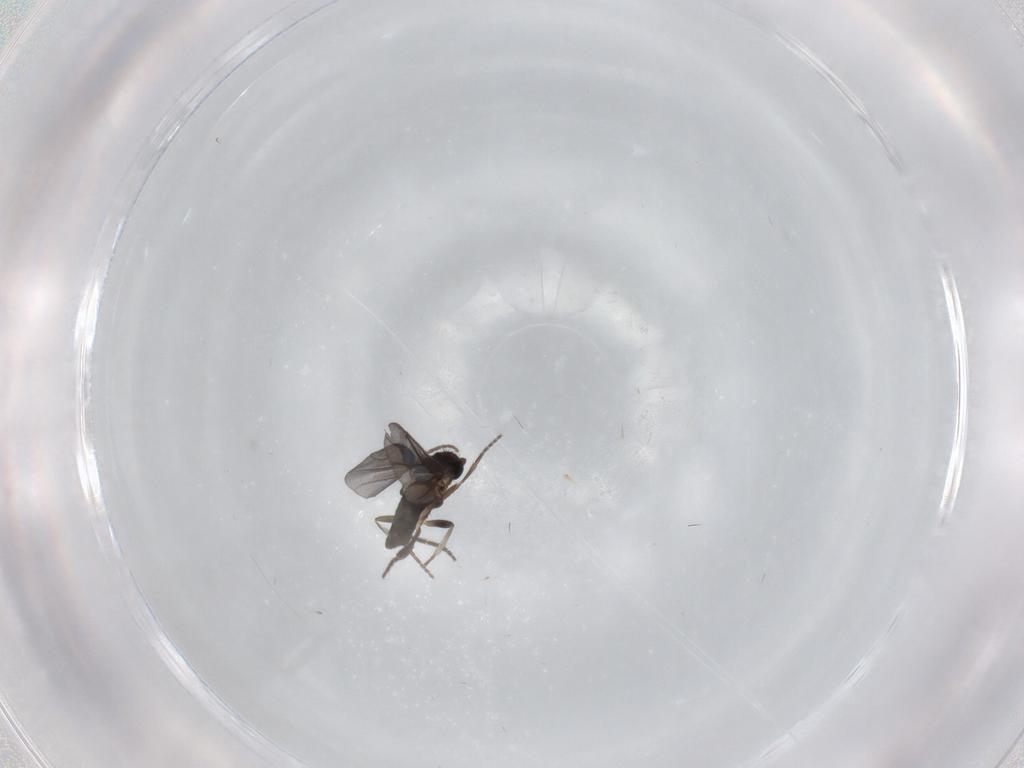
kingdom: Animalia
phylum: Arthropoda
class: Insecta
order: Diptera
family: Phoridae
